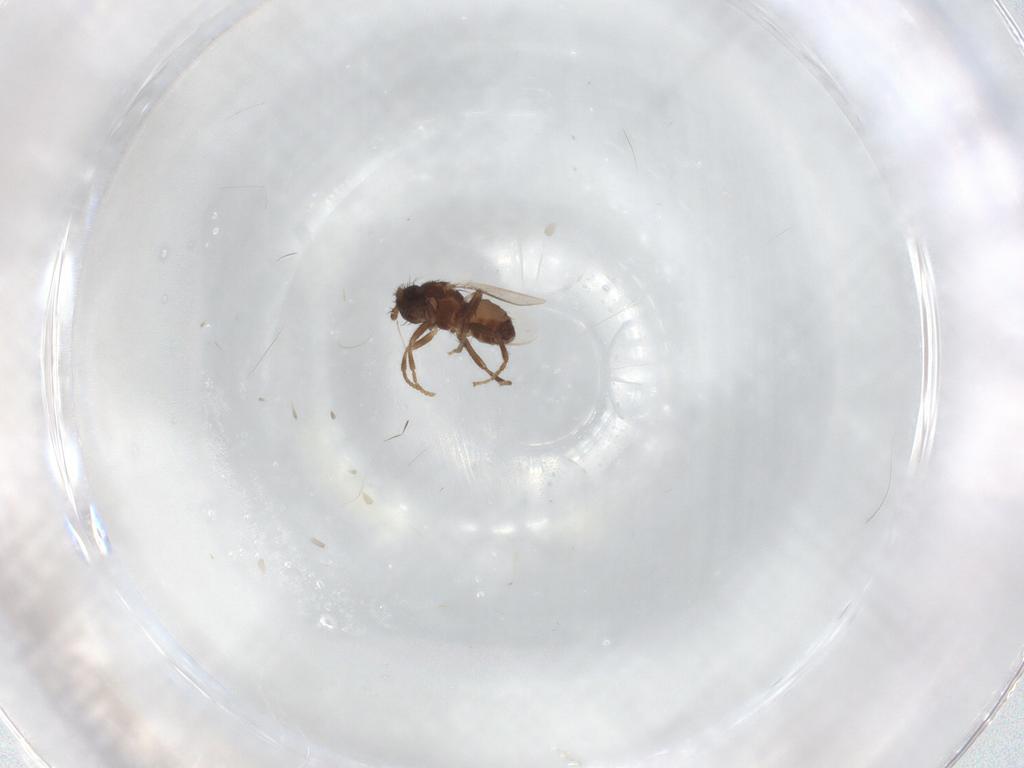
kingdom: Animalia
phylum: Arthropoda
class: Insecta
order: Diptera
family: Sphaeroceridae
